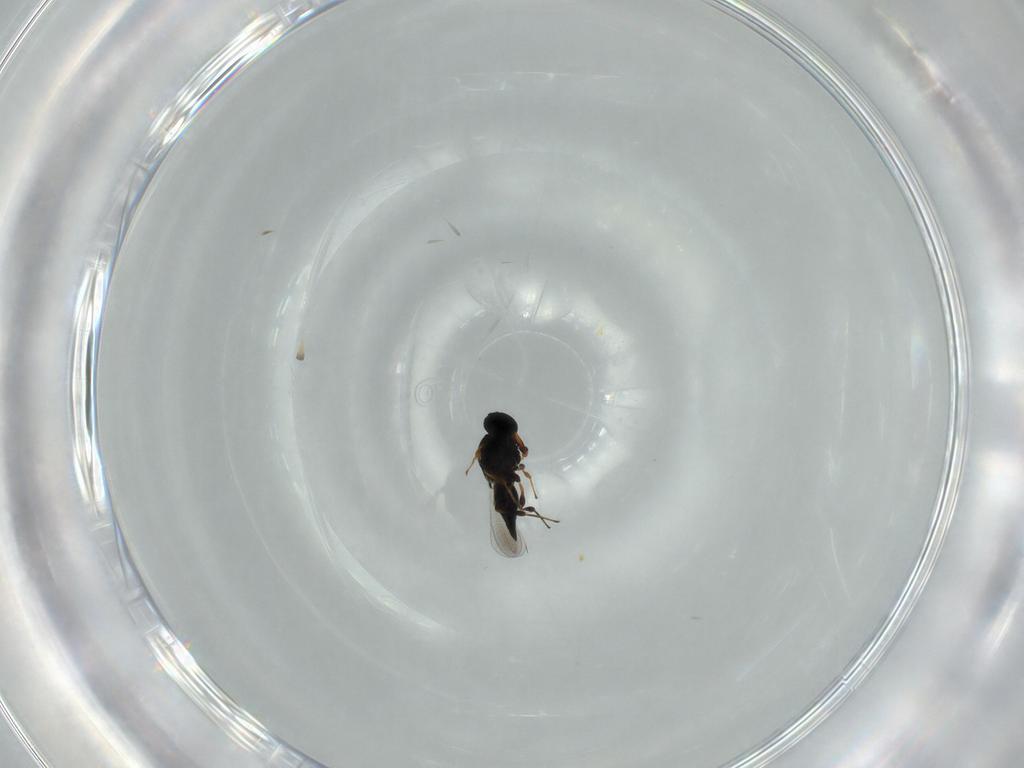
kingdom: Animalia
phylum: Arthropoda
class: Insecta
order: Hymenoptera
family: Platygastridae
